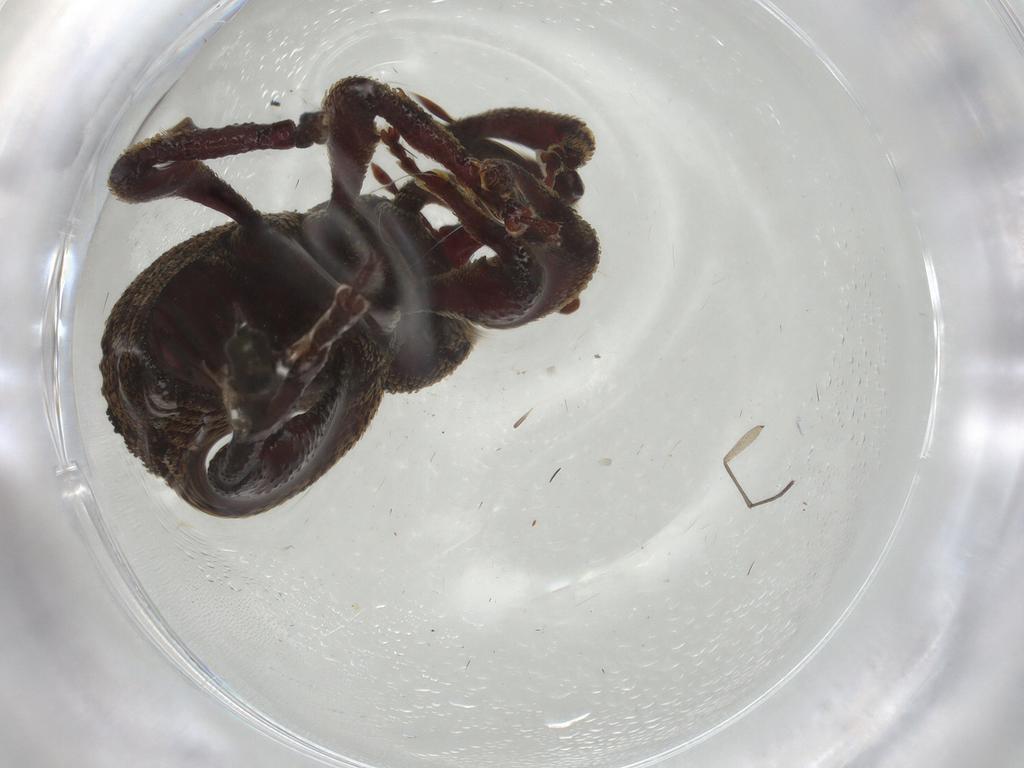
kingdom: Animalia
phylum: Arthropoda
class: Insecta
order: Coleoptera
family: Curculionidae
